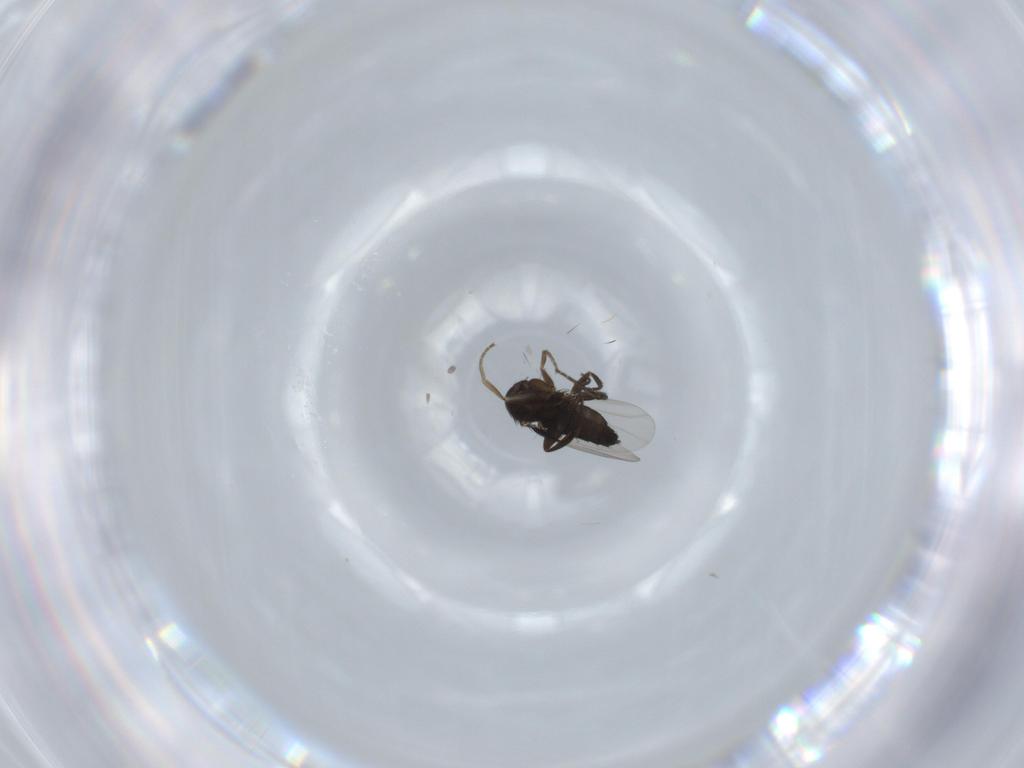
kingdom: Animalia
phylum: Arthropoda
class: Insecta
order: Diptera
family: Phoridae
